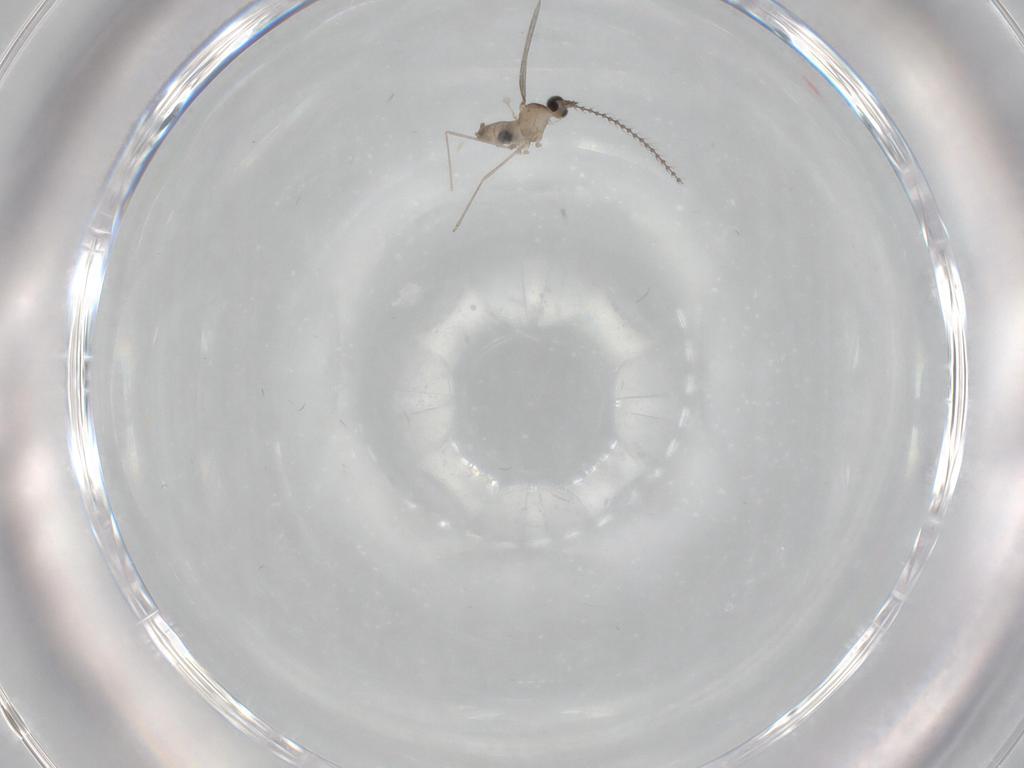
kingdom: Animalia
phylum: Arthropoda
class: Insecta
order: Diptera
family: Cecidomyiidae
